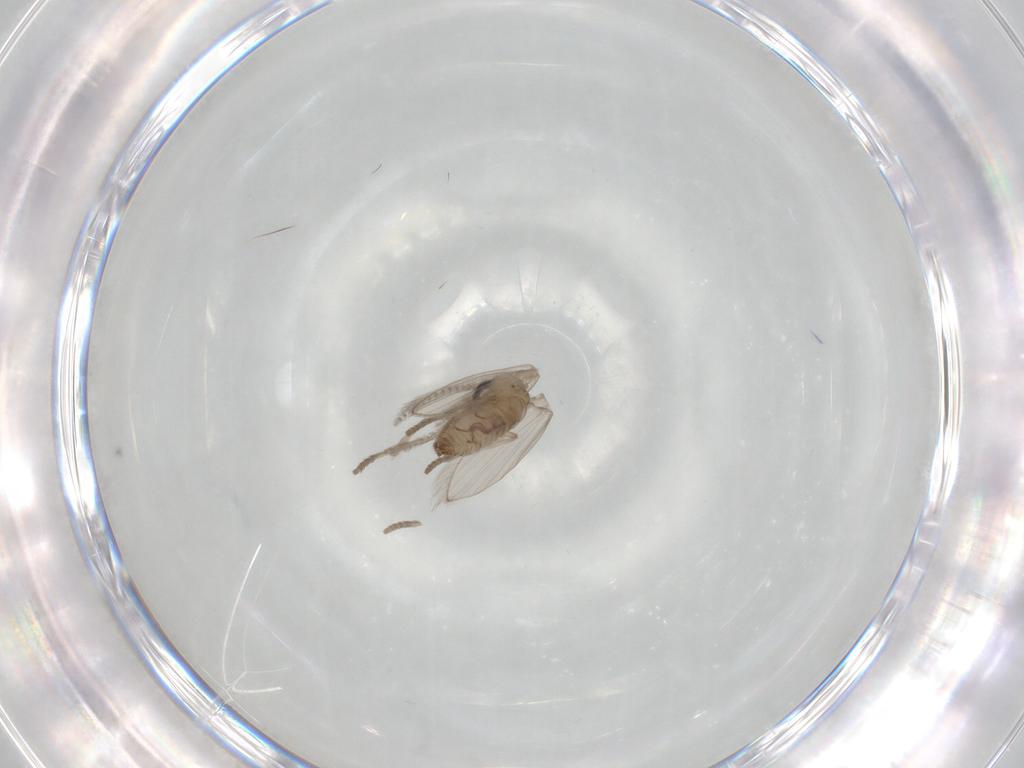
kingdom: Animalia
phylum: Arthropoda
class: Insecta
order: Diptera
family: Psychodidae
